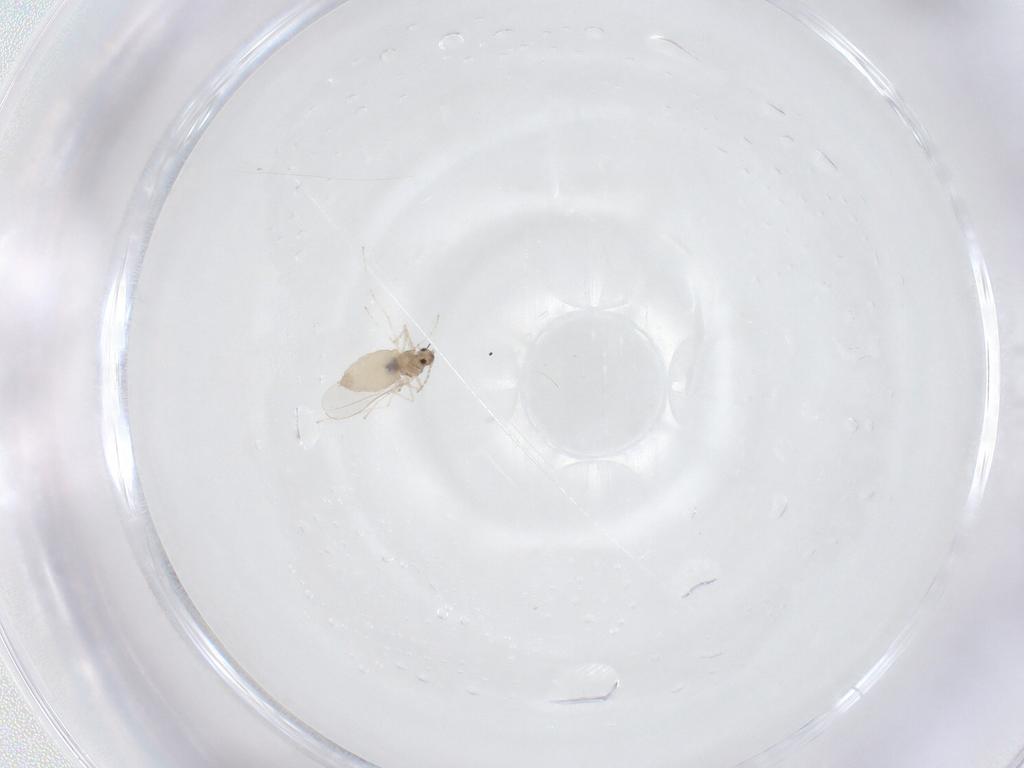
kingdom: Animalia
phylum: Arthropoda
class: Insecta
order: Diptera
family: Cecidomyiidae
